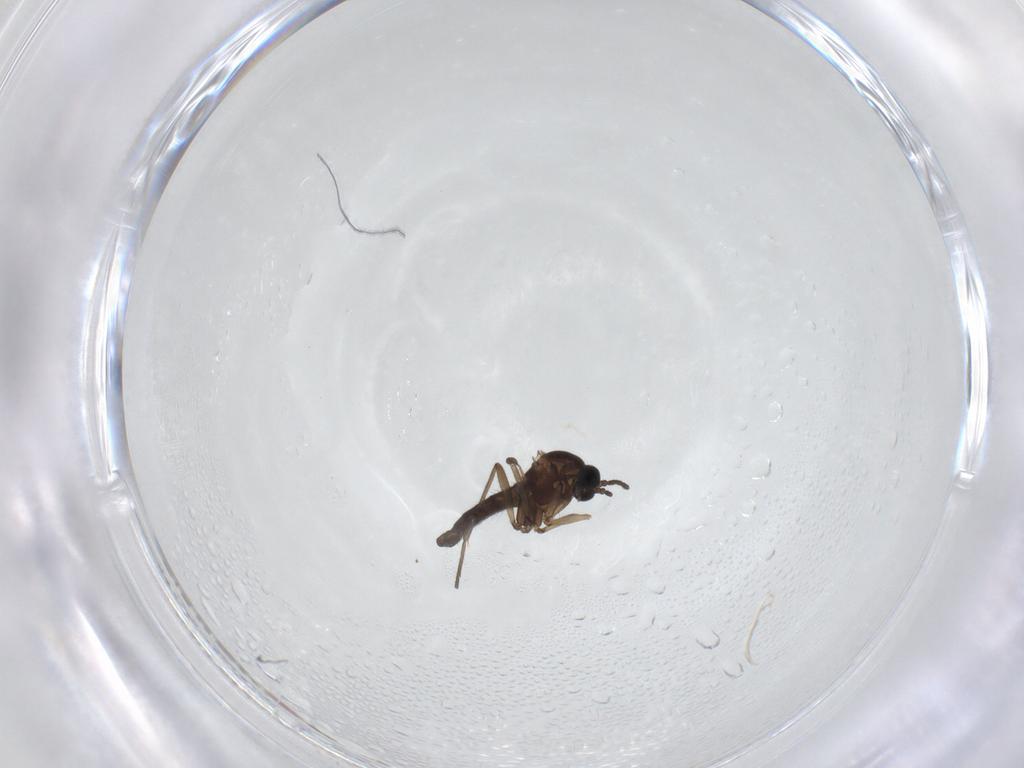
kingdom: Animalia
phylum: Arthropoda
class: Insecta
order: Diptera
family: Sciaridae
